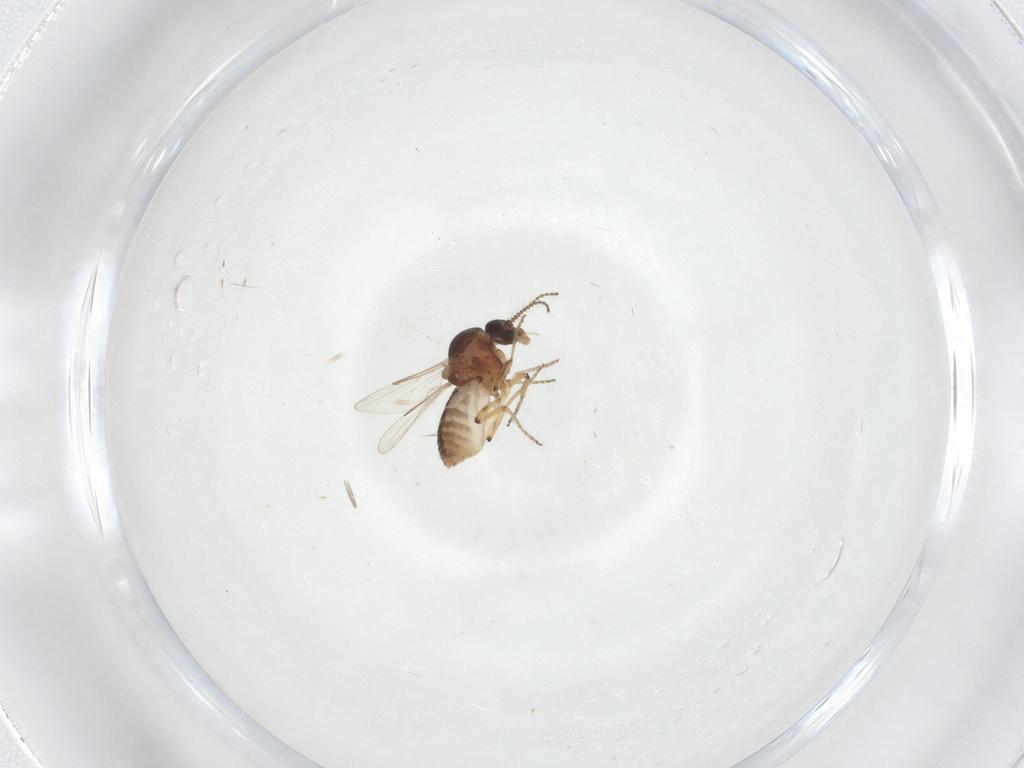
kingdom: Animalia
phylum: Arthropoda
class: Insecta
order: Diptera
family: Ceratopogonidae
